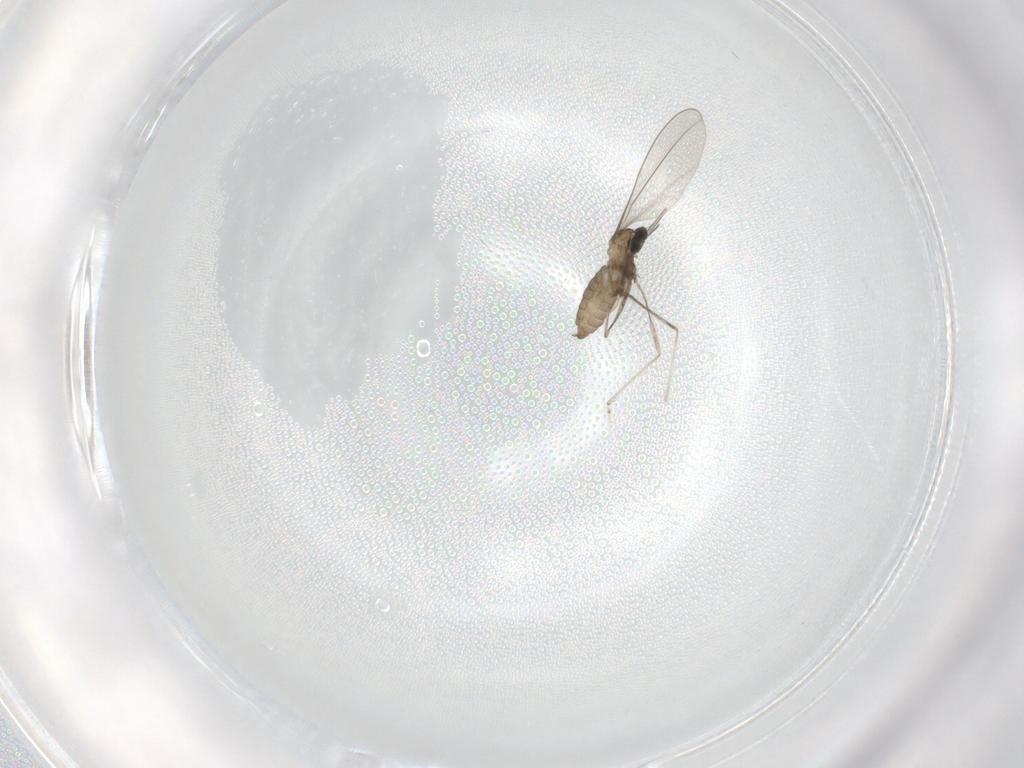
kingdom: Animalia
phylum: Arthropoda
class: Insecta
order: Diptera
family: Cecidomyiidae
